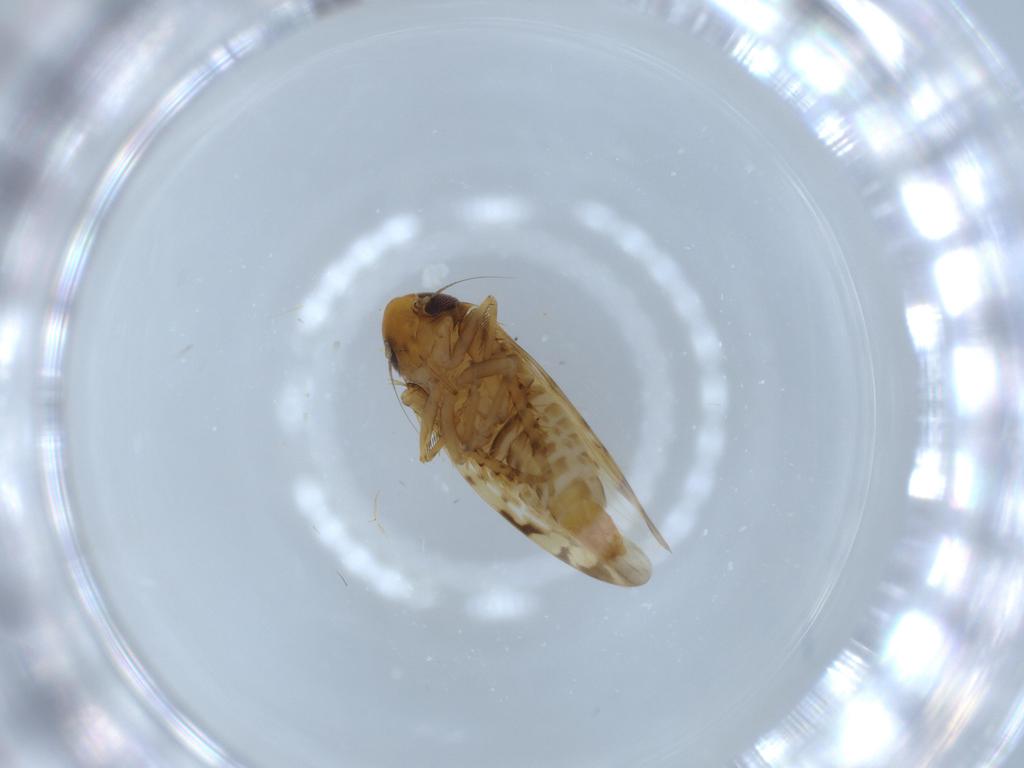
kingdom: Animalia
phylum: Arthropoda
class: Insecta
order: Hemiptera
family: Cicadellidae
